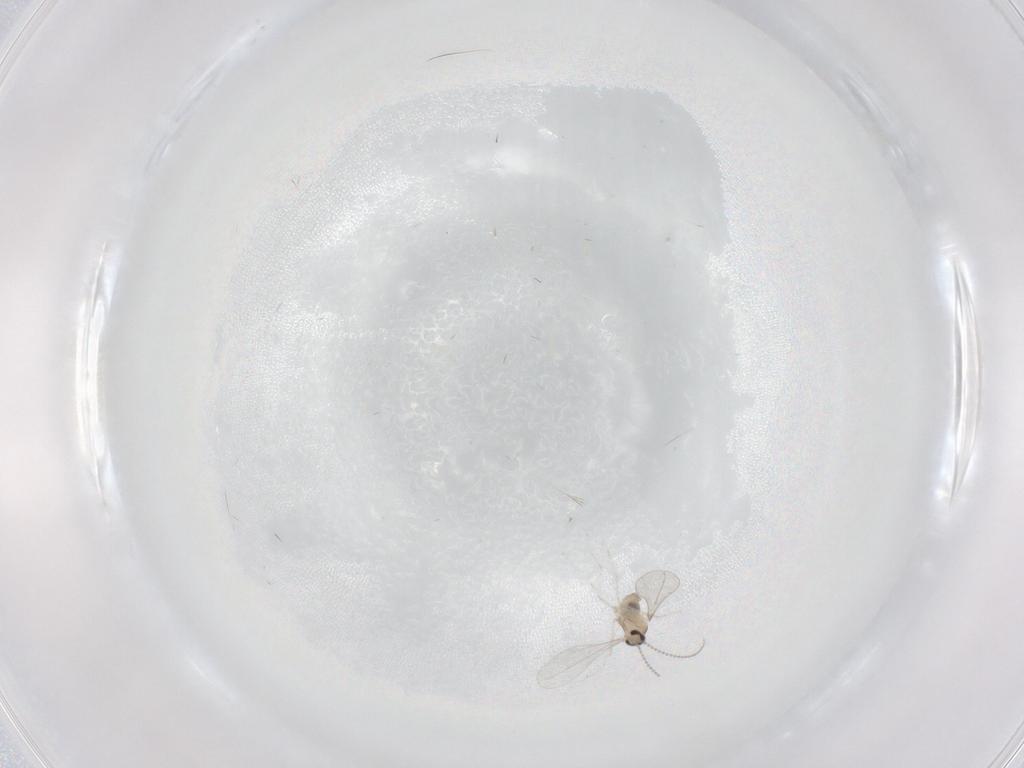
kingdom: Animalia
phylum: Arthropoda
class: Insecta
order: Diptera
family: Cecidomyiidae
